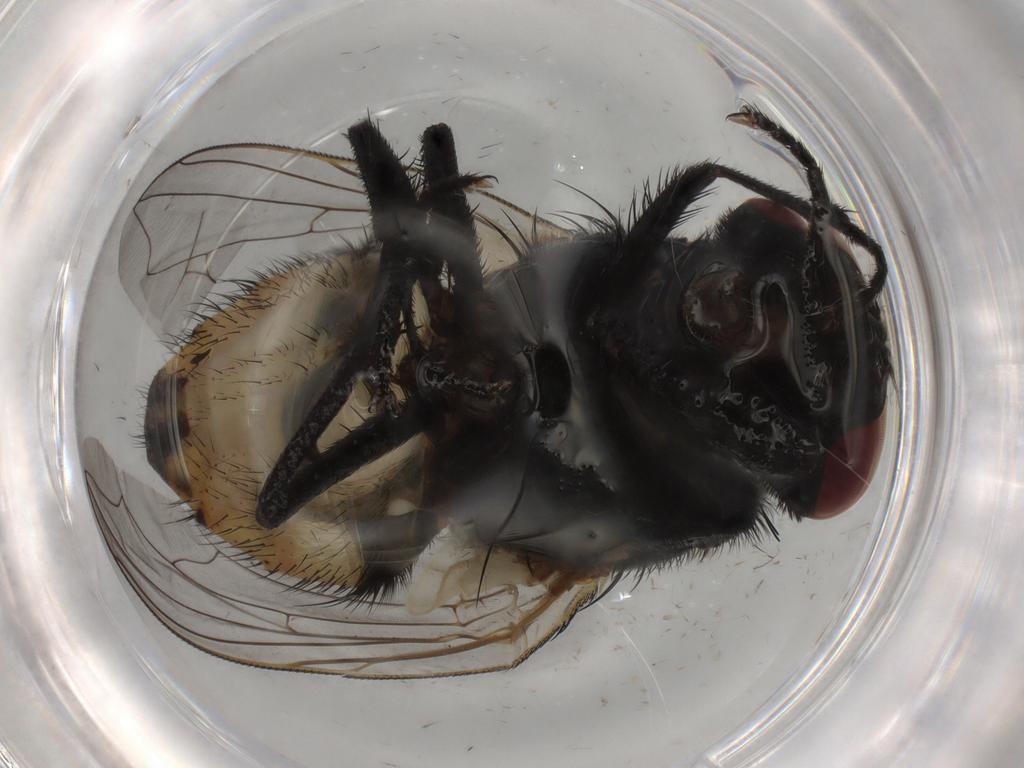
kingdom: Animalia
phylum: Arthropoda
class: Insecta
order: Diptera
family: Muscidae
